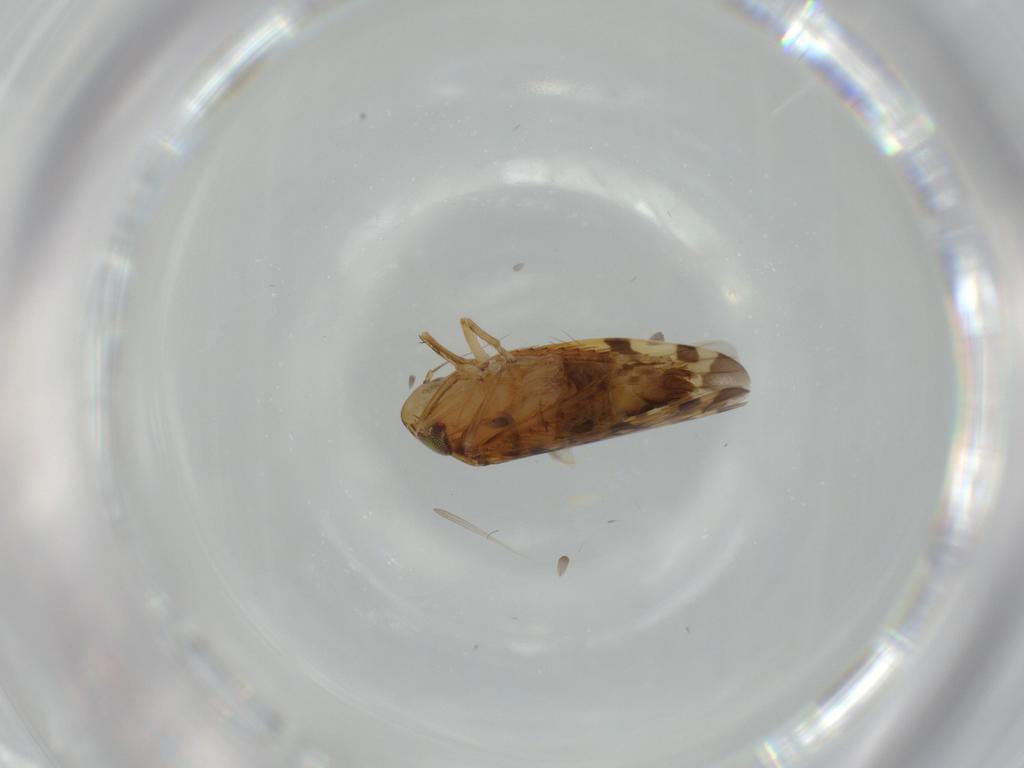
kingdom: Animalia
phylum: Arthropoda
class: Insecta
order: Hemiptera
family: Cicadellidae
